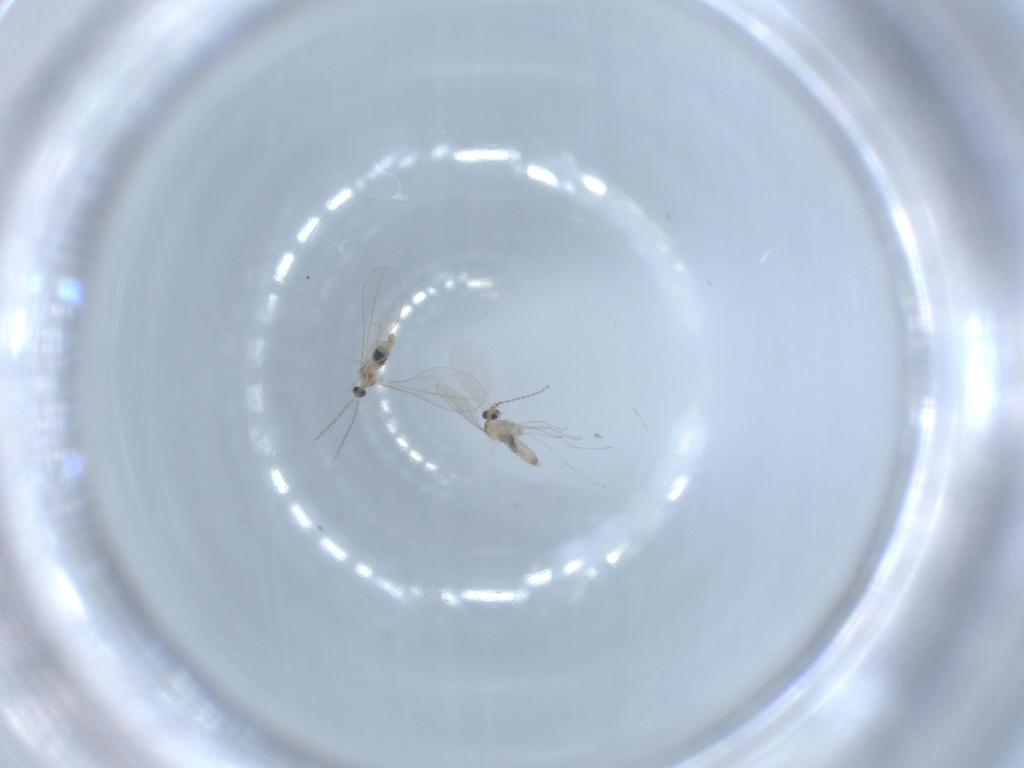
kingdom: Animalia
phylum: Arthropoda
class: Insecta
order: Diptera
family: Cecidomyiidae
